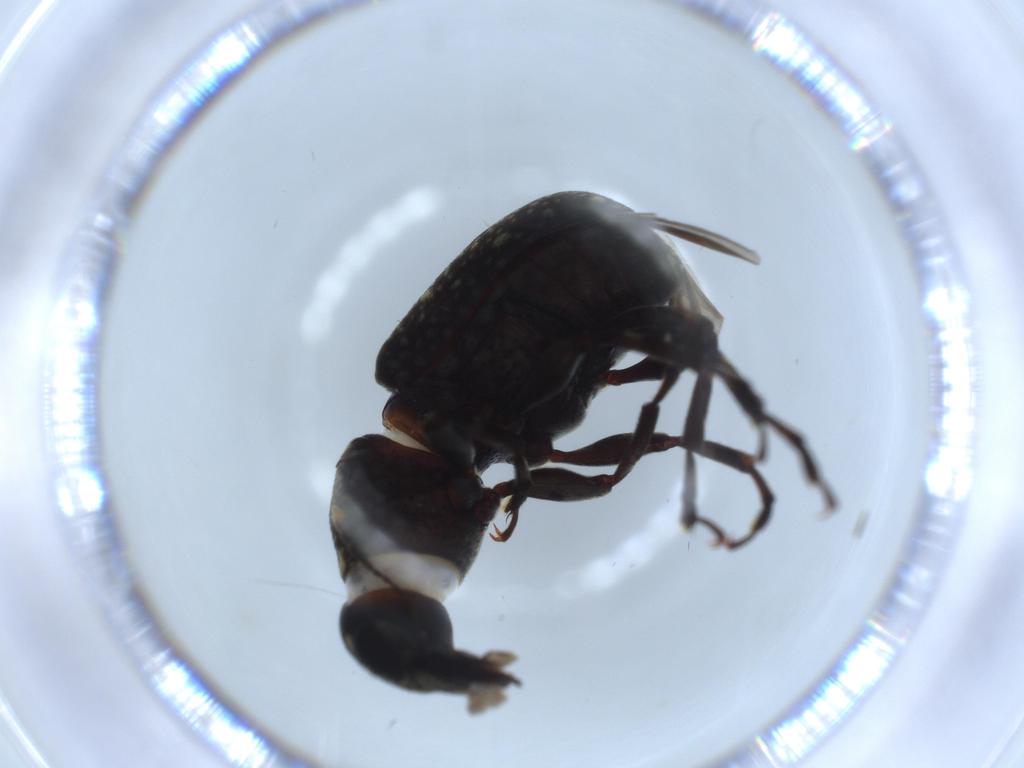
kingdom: Animalia
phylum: Arthropoda
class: Insecta
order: Coleoptera
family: Anthribidae
